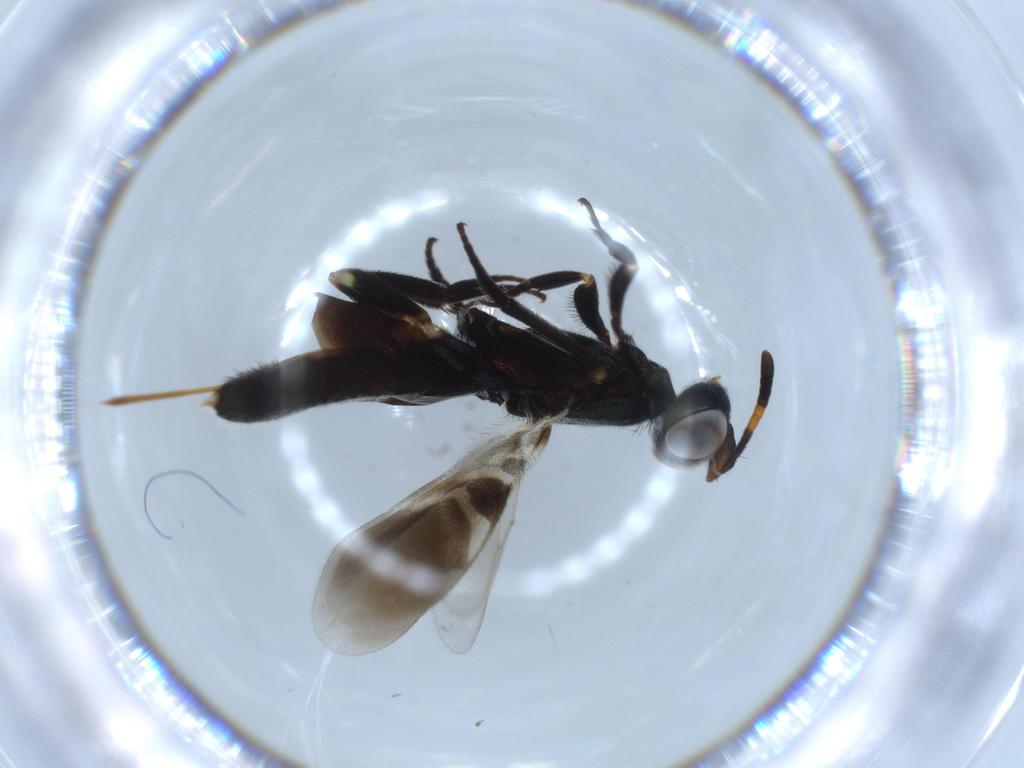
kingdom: Animalia
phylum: Arthropoda
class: Insecta
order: Hymenoptera
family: Eupelmidae
